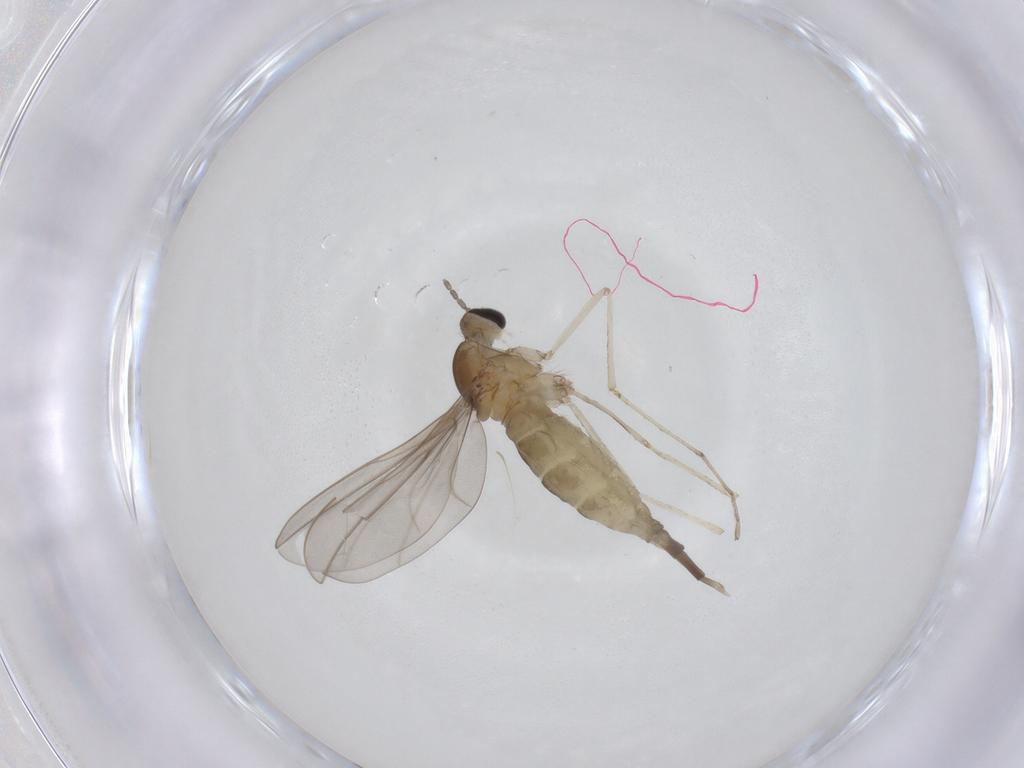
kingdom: Animalia
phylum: Arthropoda
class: Insecta
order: Diptera
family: Cecidomyiidae
